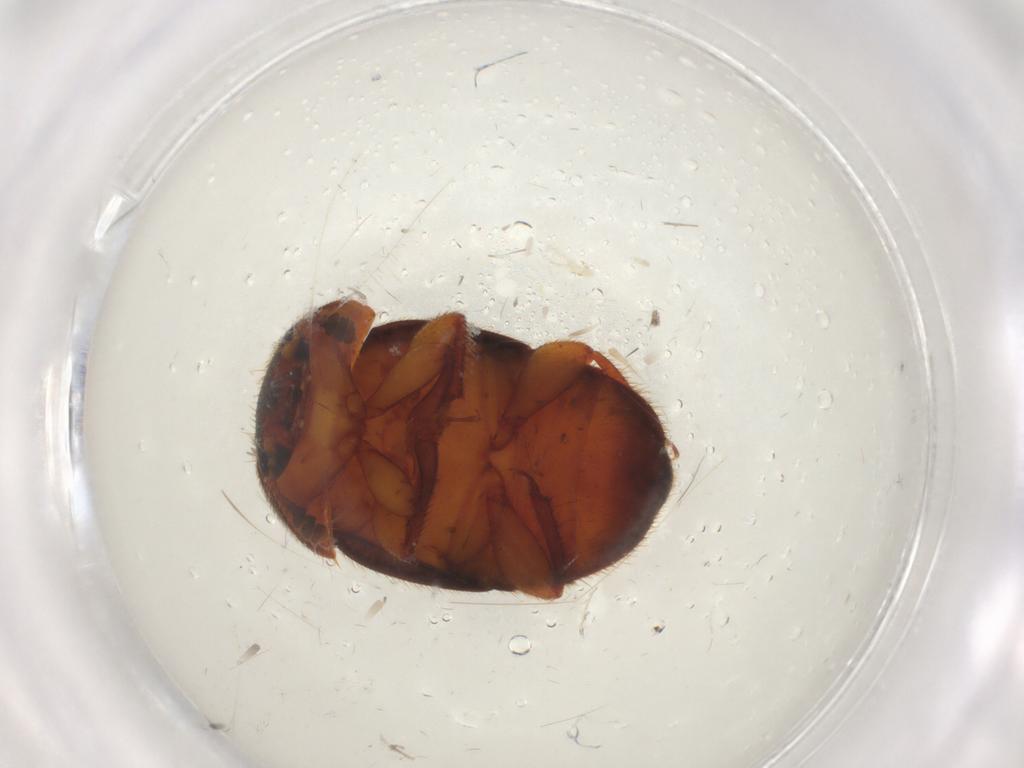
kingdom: Animalia
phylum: Arthropoda
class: Insecta
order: Coleoptera
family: Nitidulidae
